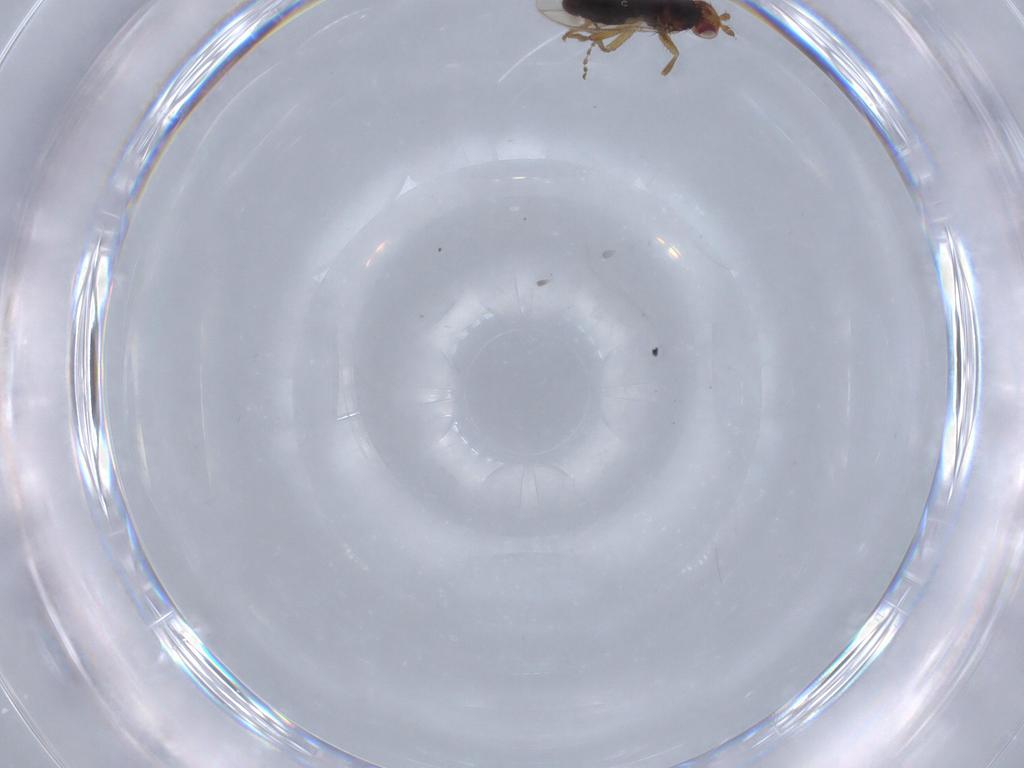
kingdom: Animalia
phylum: Arthropoda
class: Insecta
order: Diptera
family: Sphaeroceridae
